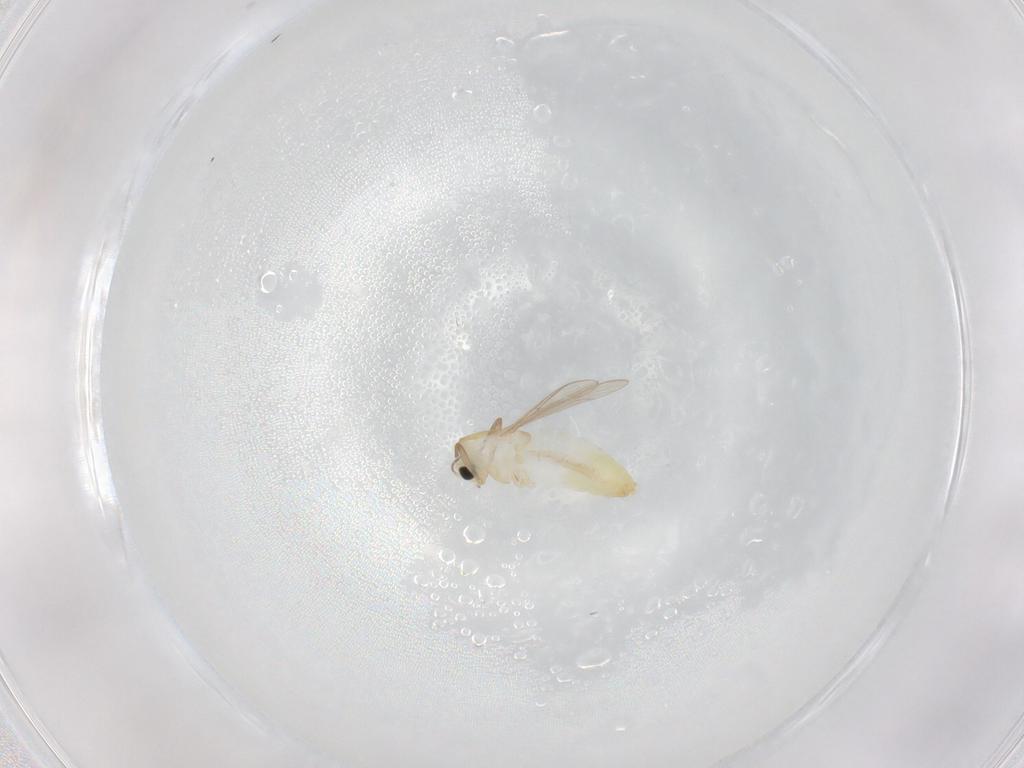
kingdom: Animalia
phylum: Arthropoda
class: Insecta
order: Diptera
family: Chironomidae
